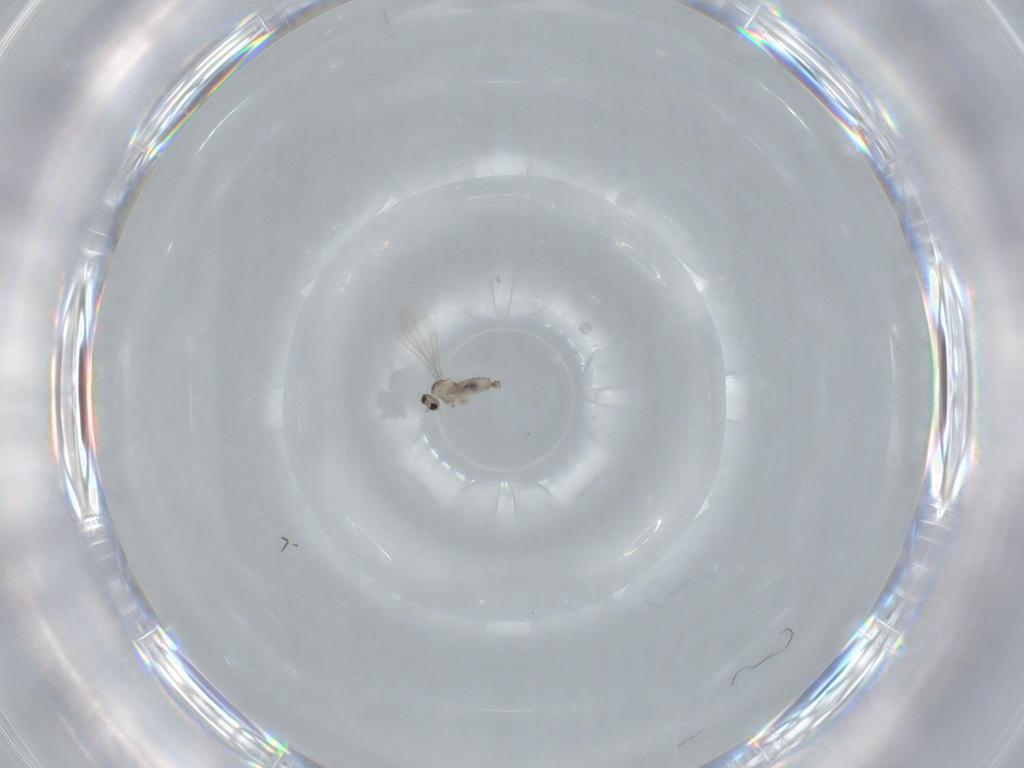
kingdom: Animalia
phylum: Arthropoda
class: Insecta
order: Diptera
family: Cecidomyiidae
